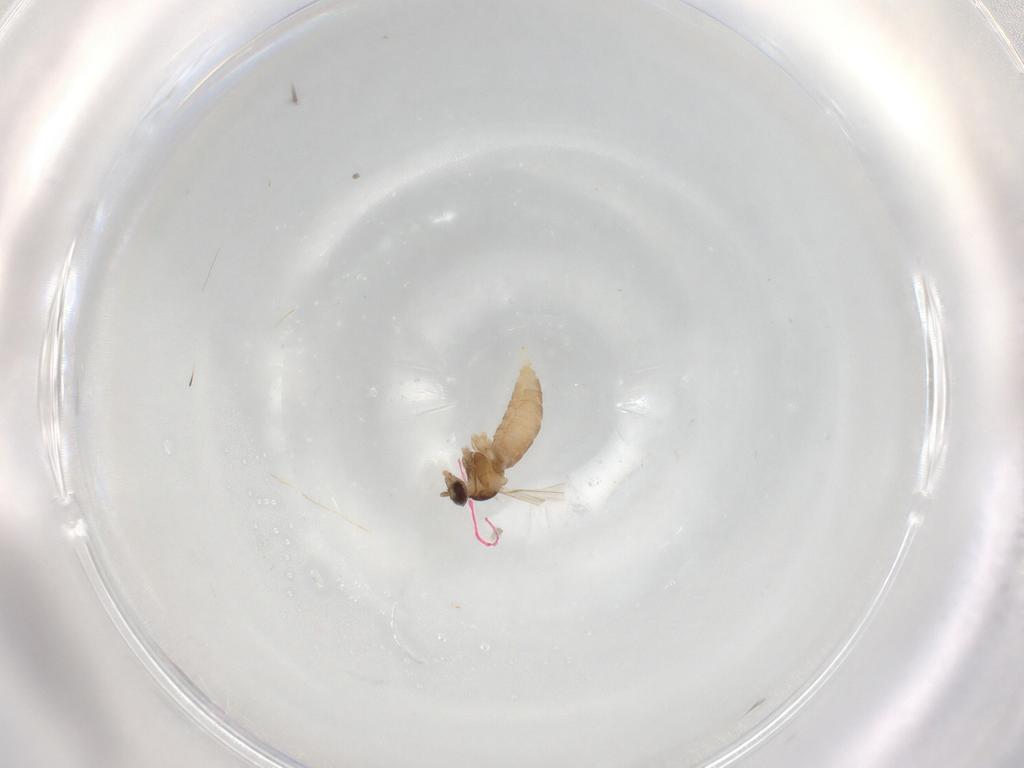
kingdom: Animalia
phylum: Arthropoda
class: Insecta
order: Diptera
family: Cecidomyiidae
